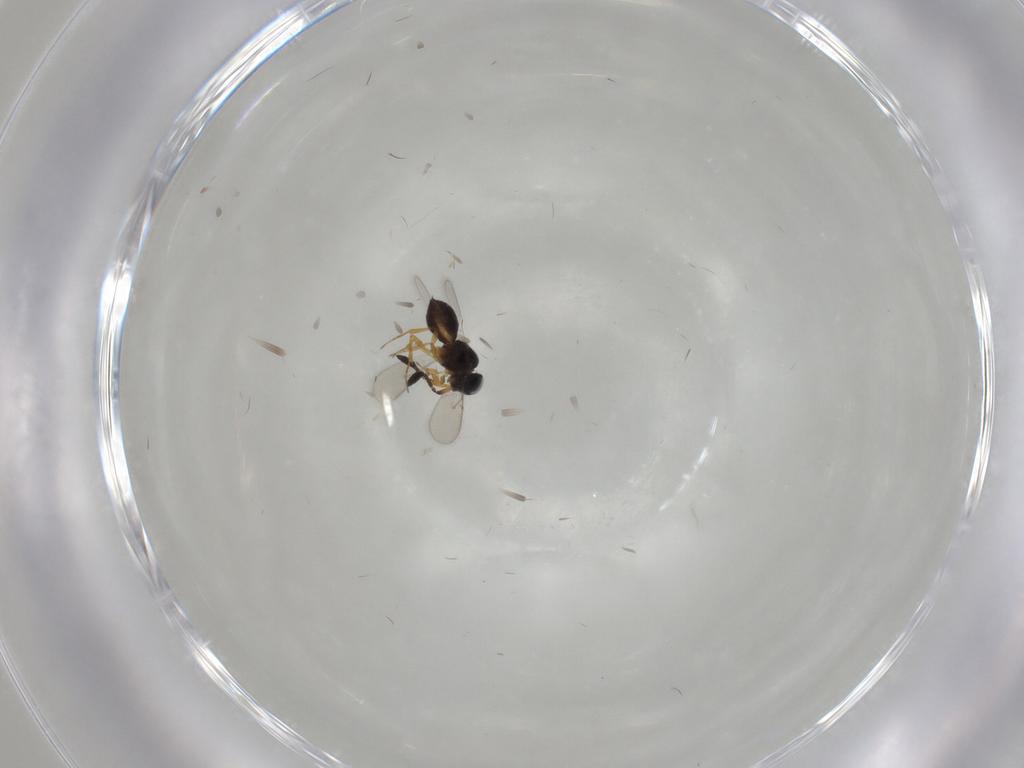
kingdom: Animalia
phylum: Arthropoda
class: Insecta
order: Hymenoptera
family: Scelionidae
